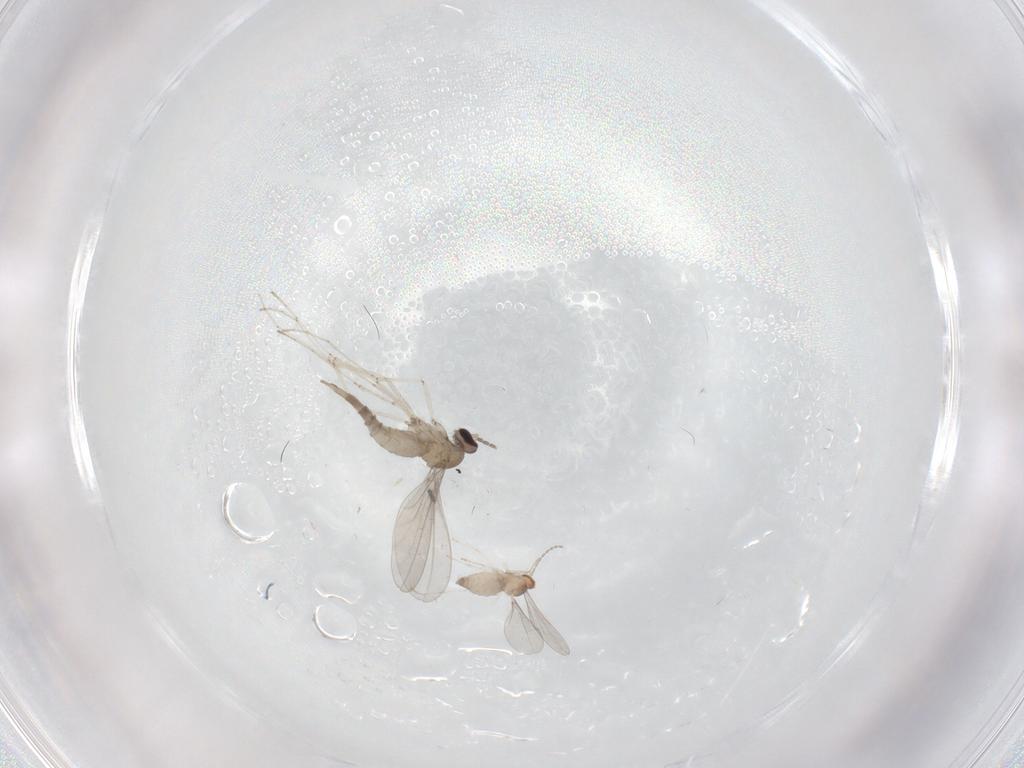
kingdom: Animalia
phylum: Arthropoda
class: Insecta
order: Diptera
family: Cecidomyiidae
